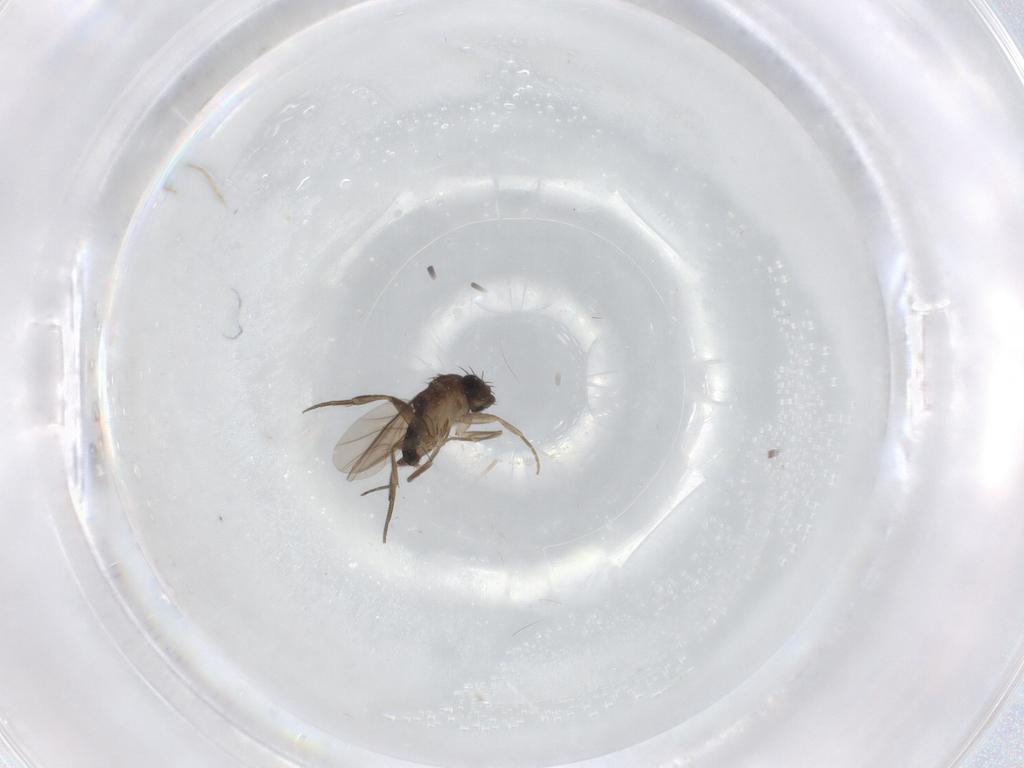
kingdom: Animalia
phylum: Arthropoda
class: Insecta
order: Diptera
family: Phoridae
